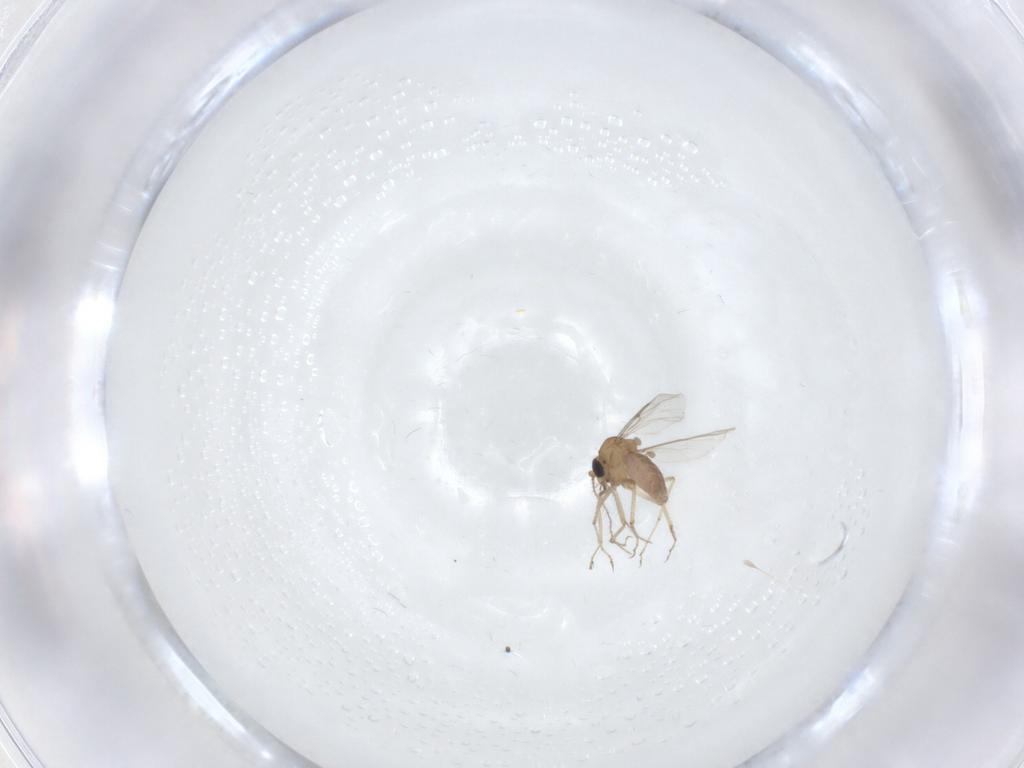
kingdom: Animalia
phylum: Arthropoda
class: Insecta
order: Diptera
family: Ceratopogonidae
